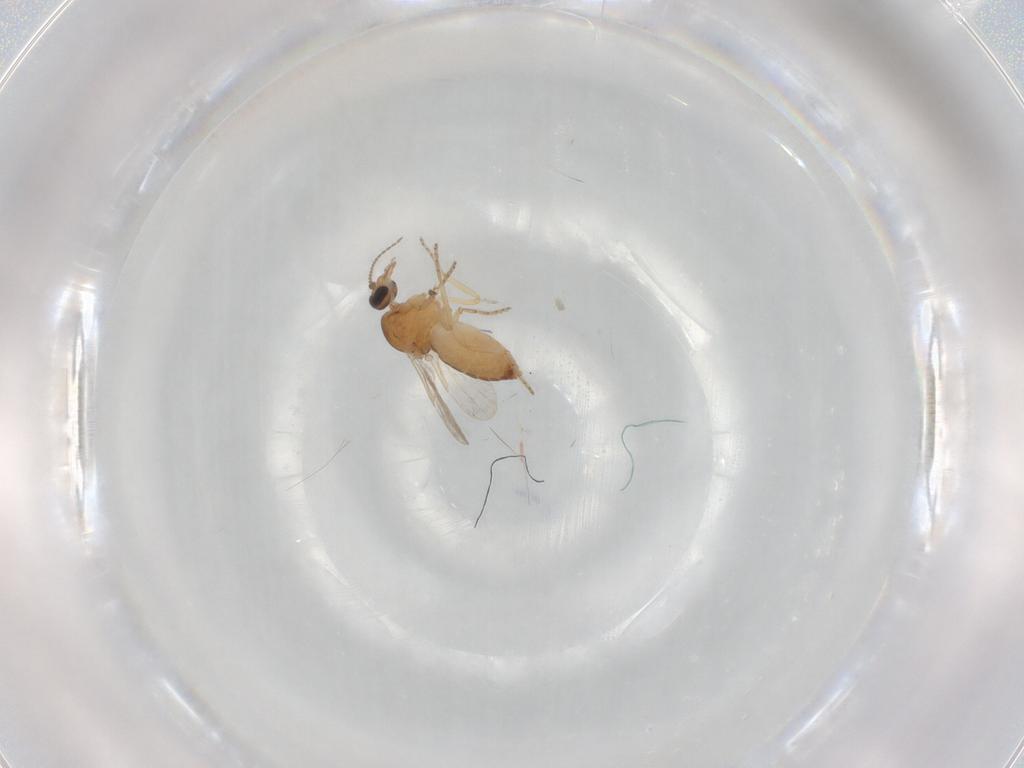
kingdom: Animalia
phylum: Arthropoda
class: Insecta
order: Diptera
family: Ceratopogonidae
